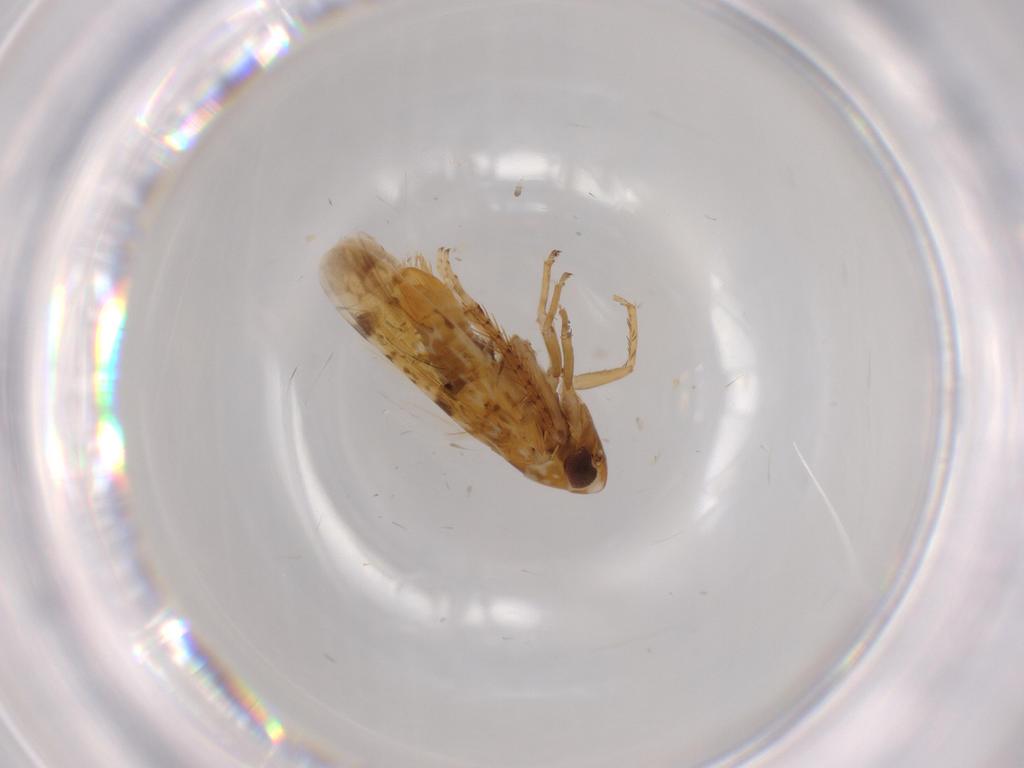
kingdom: Animalia
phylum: Arthropoda
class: Insecta
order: Hemiptera
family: Cicadellidae
